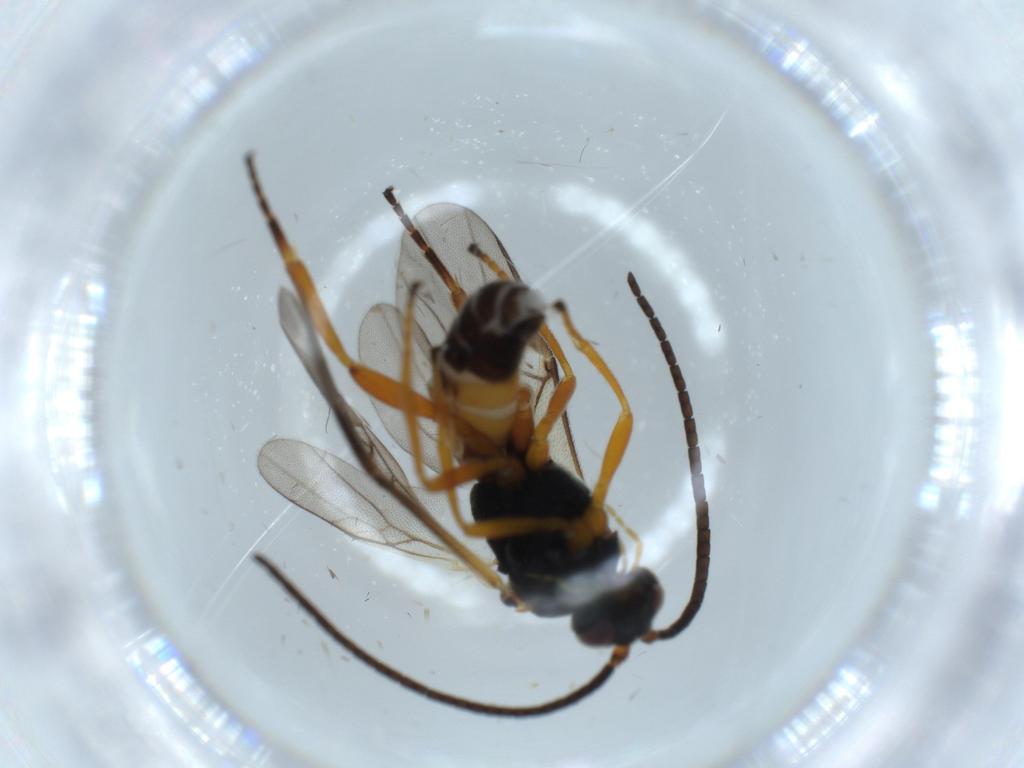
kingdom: Animalia
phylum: Arthropoda
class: Insecta
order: Hymenoptera
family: Braconidae
